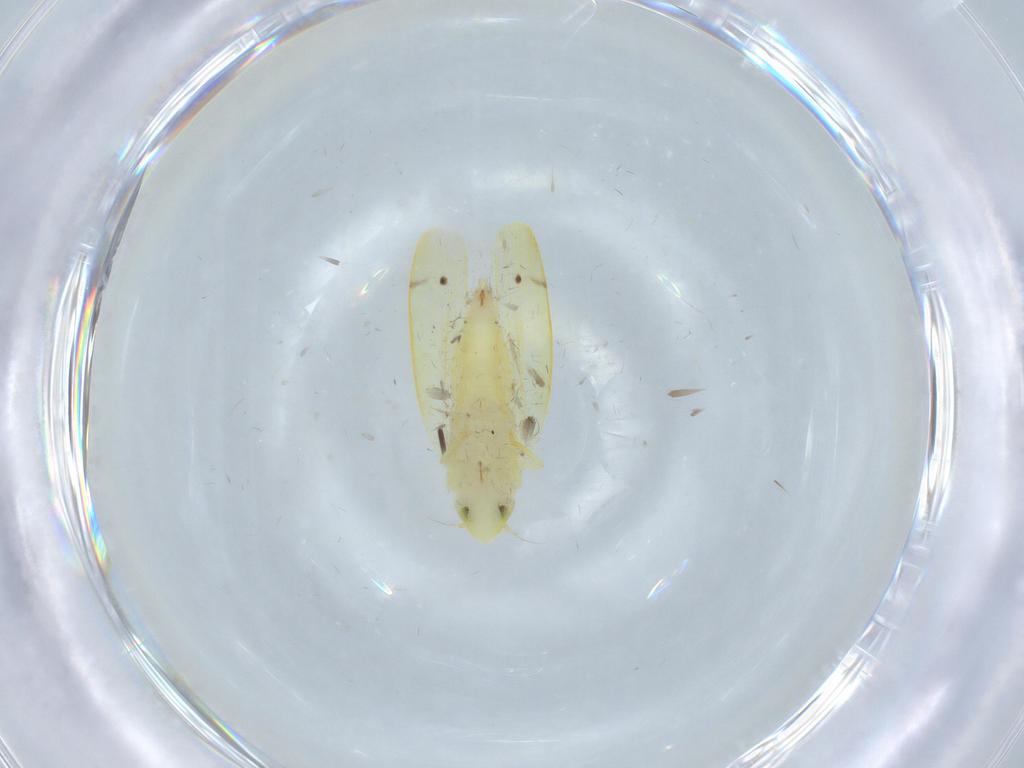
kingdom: Animalia
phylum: Arthropoda
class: Insecta
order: Hemiptera
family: Cicadellidae
